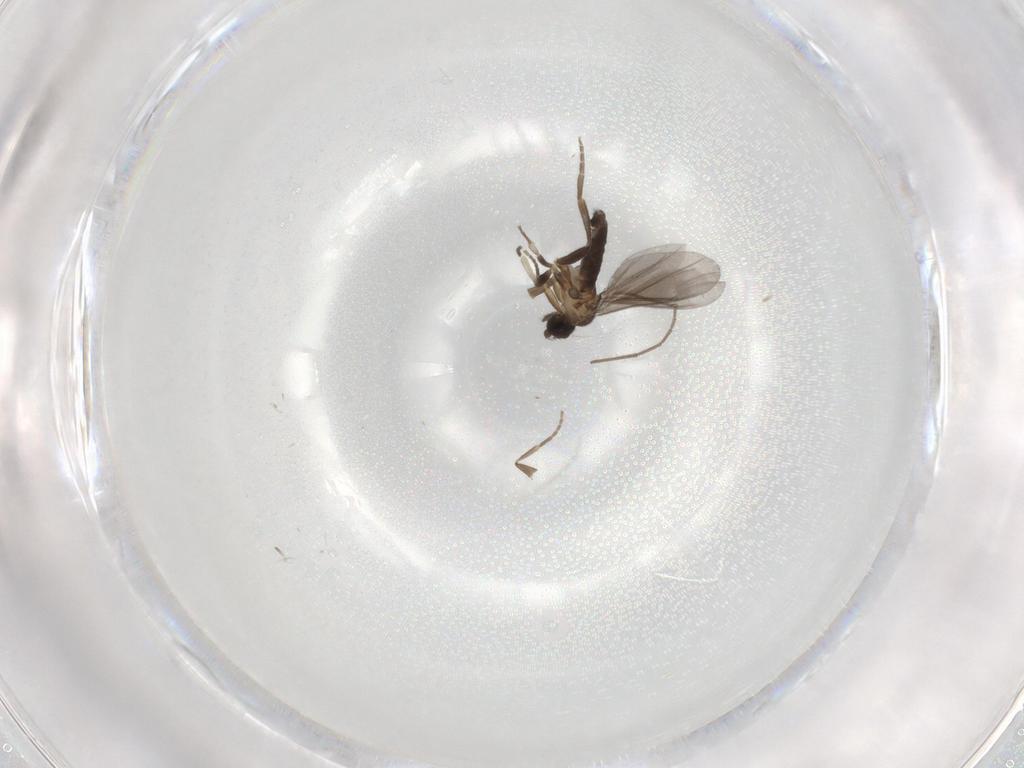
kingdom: Animalia
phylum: Arthropoda
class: Insecta
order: Diptera
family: Phoridae
